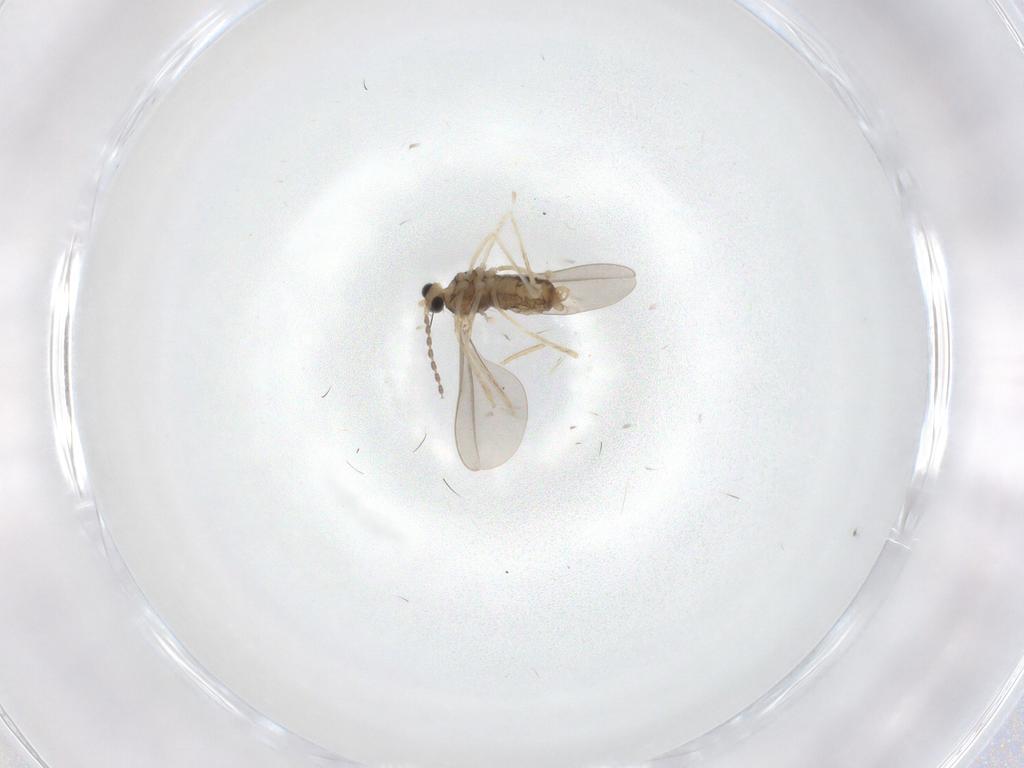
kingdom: Animalia
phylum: Arthropoda
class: Insecta
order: Diptera
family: Cecidomyiidae
